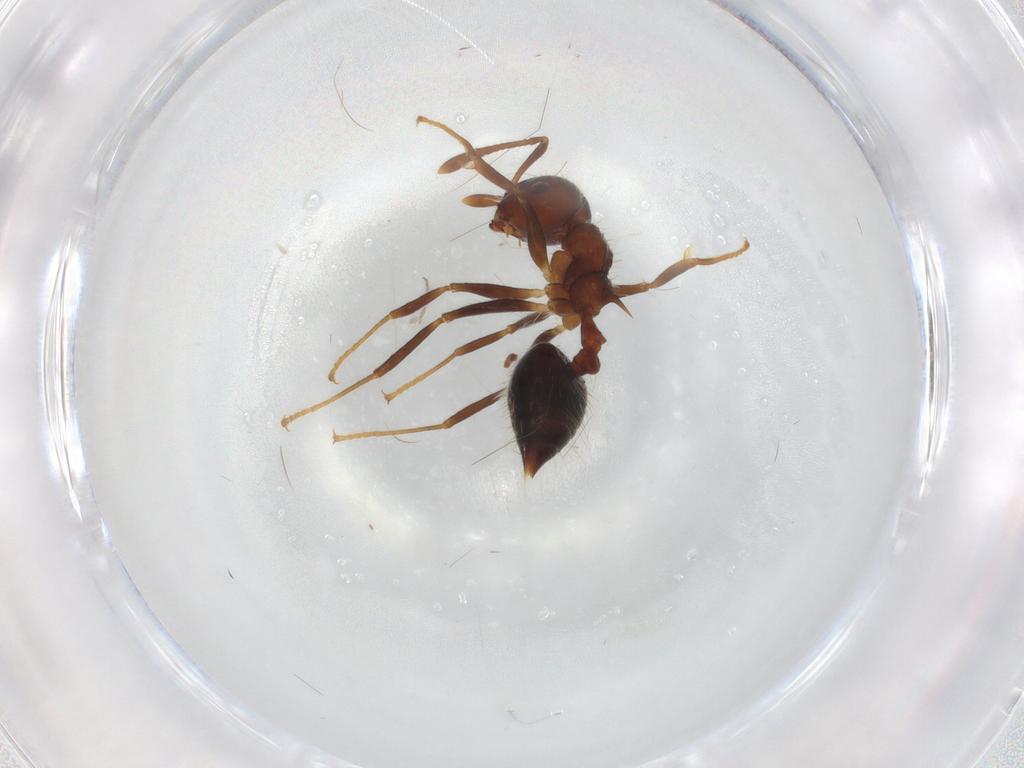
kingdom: Animalia
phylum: Arthropoda
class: Insecta
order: Hymenoptera
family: Formicidae
